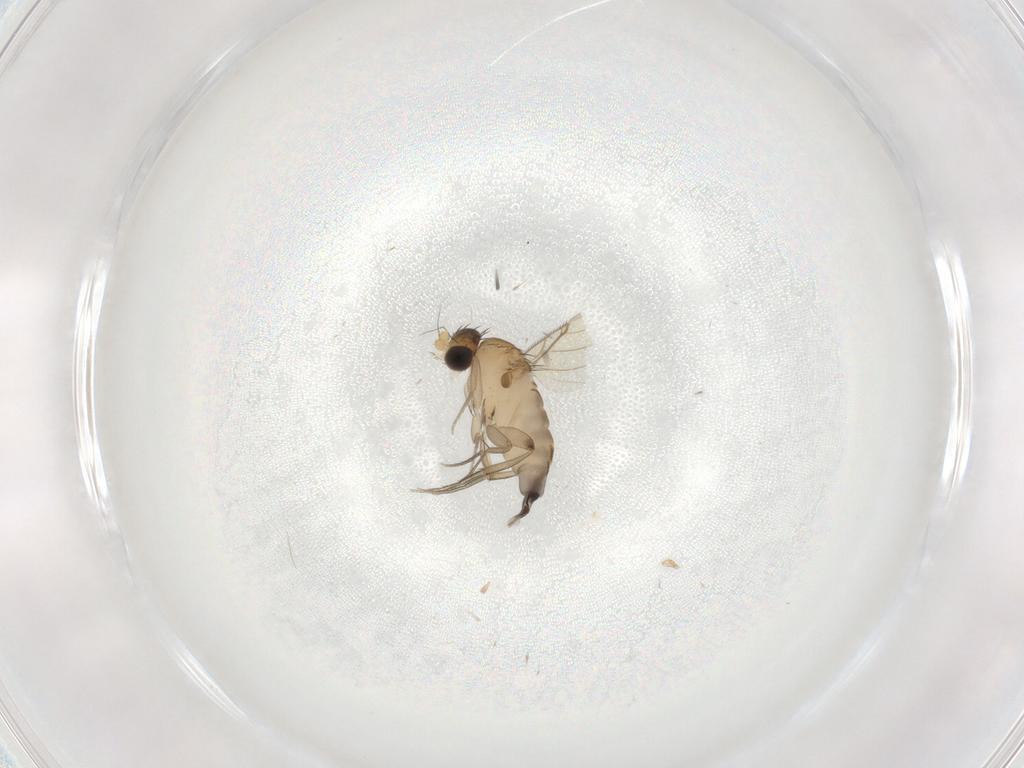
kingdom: Animalia
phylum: Arthropoda
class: Insecta
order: Diptera
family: Phoridae
